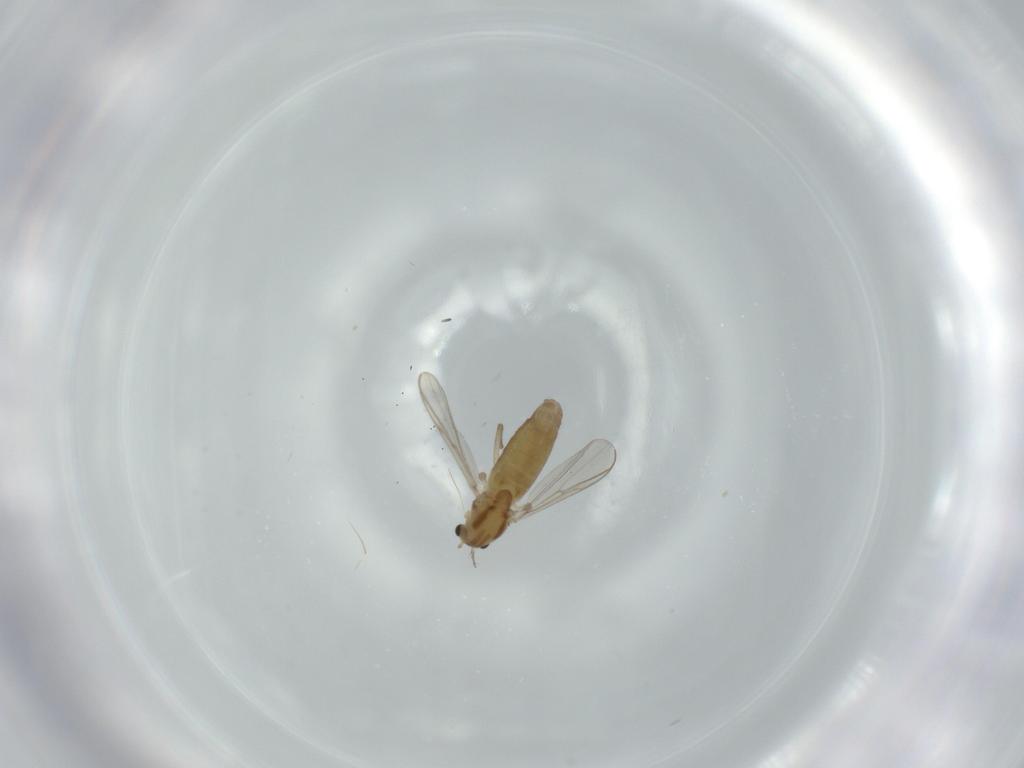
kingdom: Animalia
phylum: Arthropoda
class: Insecta
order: Diptera
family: Chironomidae
